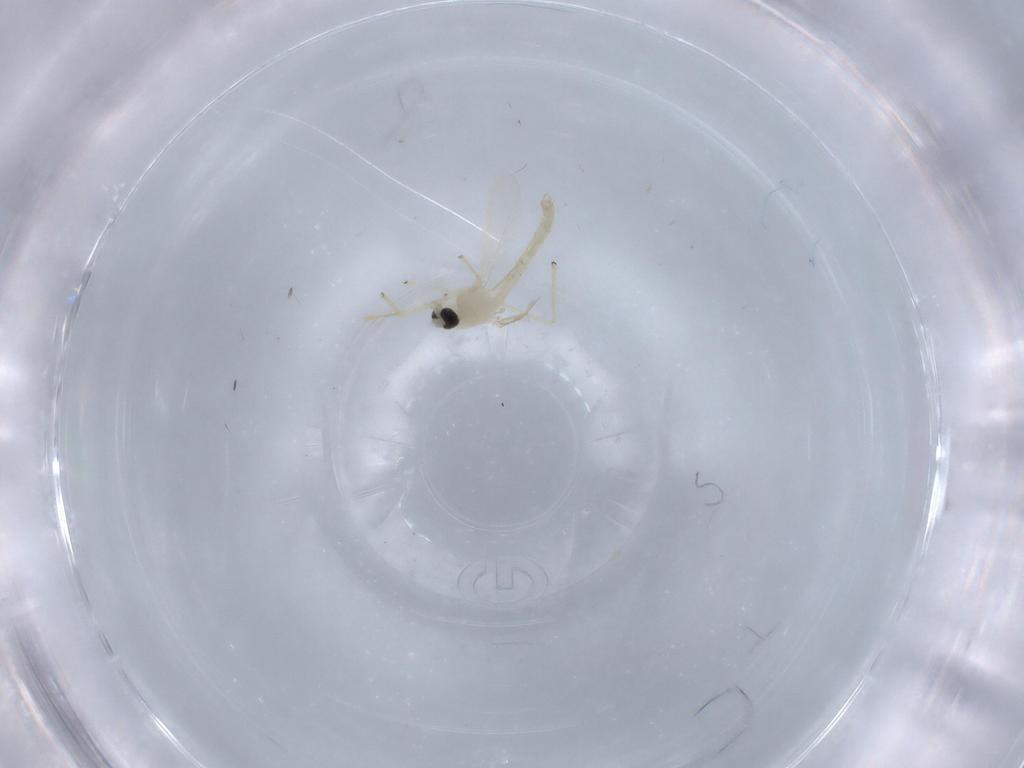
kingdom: Animalia
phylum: Arthropoda
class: Insecta
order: Diptera
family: Chironomidae
